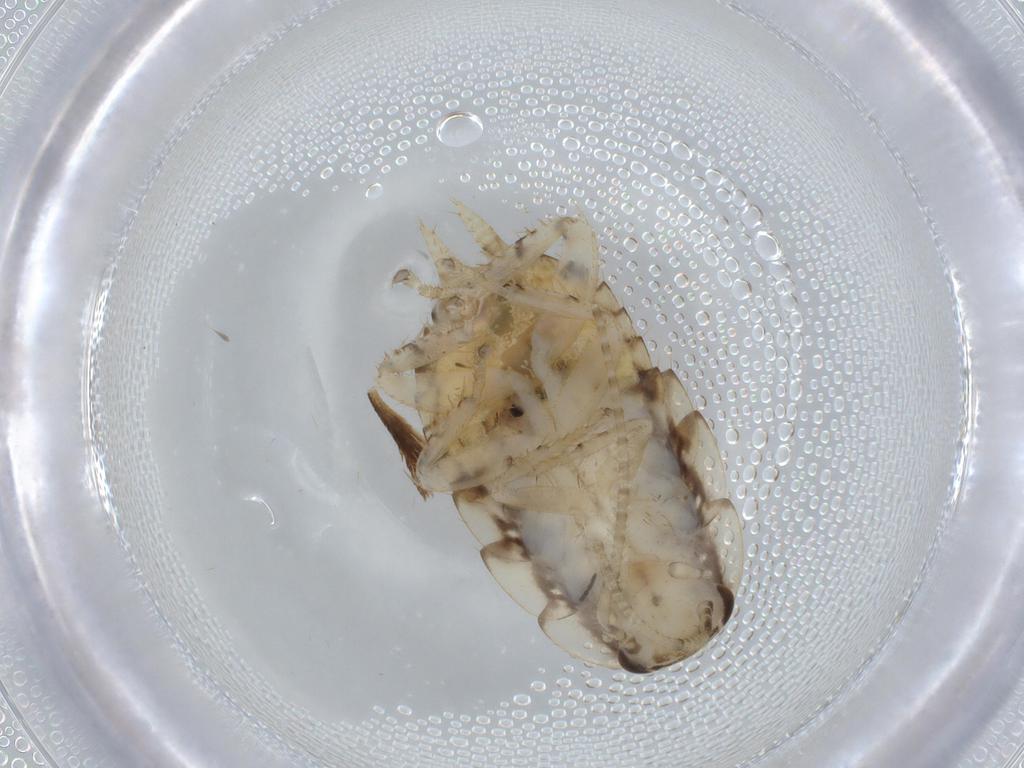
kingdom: Animalia
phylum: Arthropoda
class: Insecta
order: Blattodea
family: Ectobiidae
